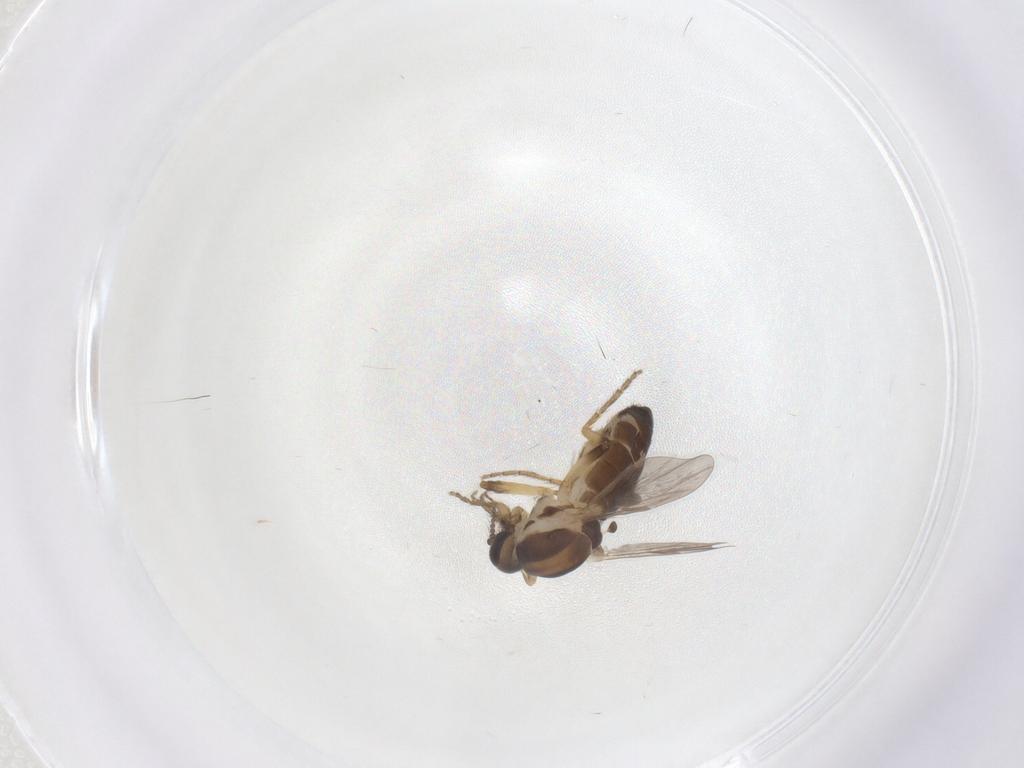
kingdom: Animalia
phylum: Arthropoda
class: Insecta
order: Diptera
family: Ceratopogonidae
